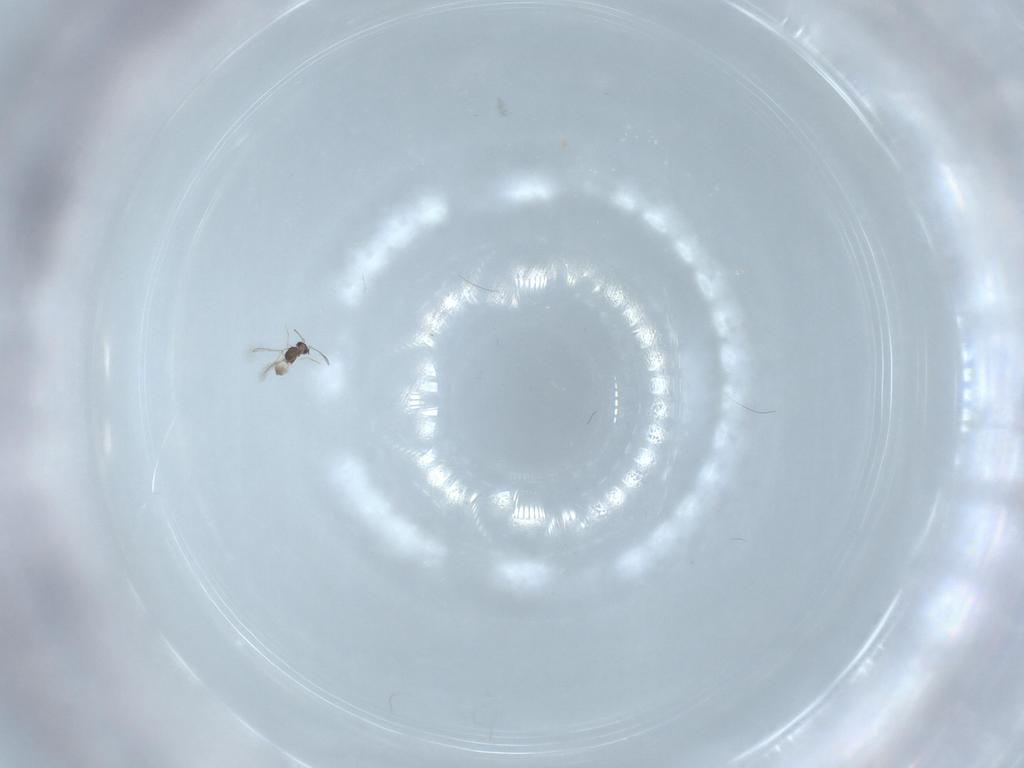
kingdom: Animalia
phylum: Arthropoda
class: Insecta
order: Hymenoptera
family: Mymaridae
